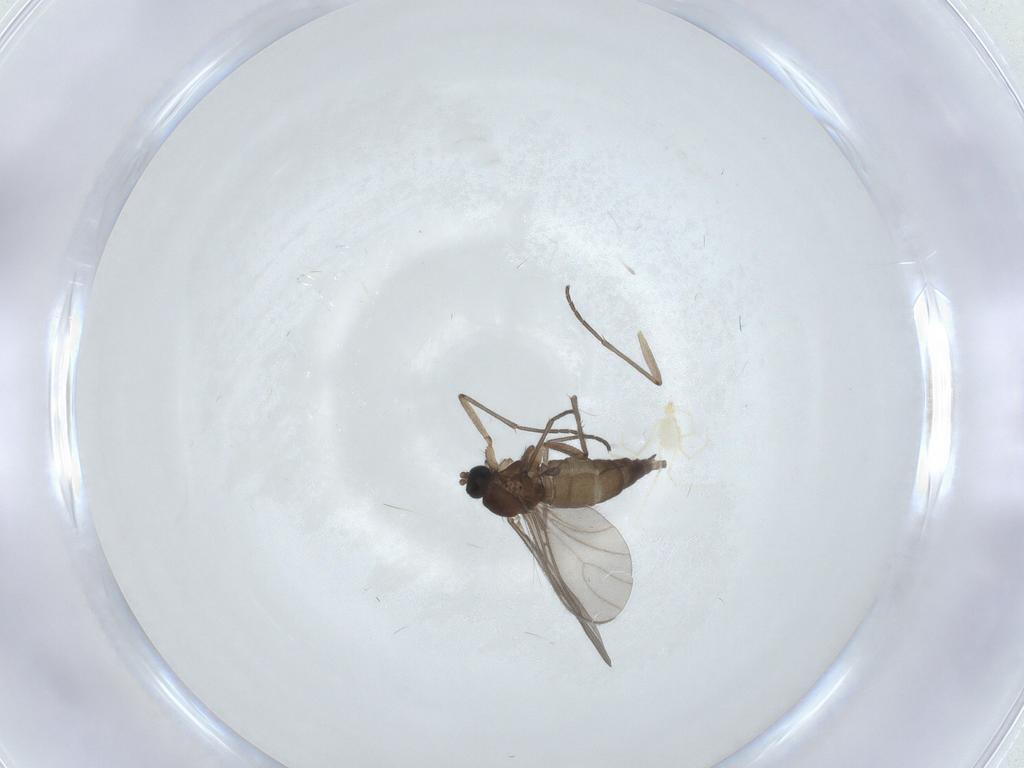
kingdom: Animalia
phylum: Arthropoda
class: Insecta
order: Diptera
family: Sciaridae
